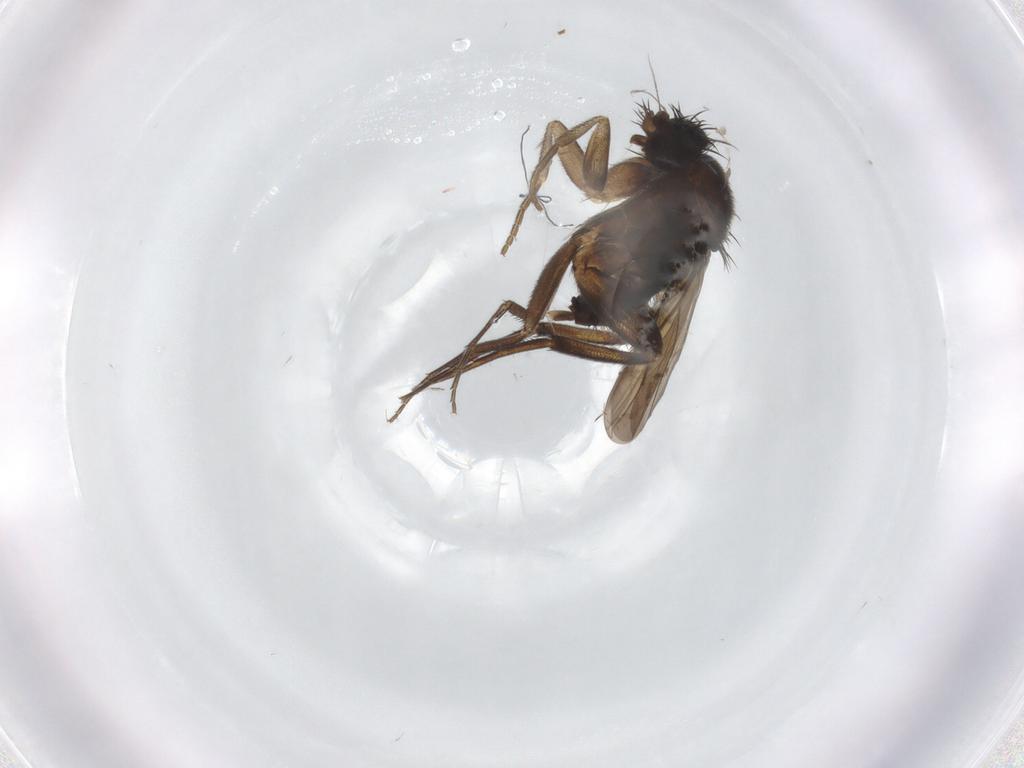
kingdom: Animalia
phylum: Arthropoda
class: Insecta
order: Diptera
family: Phoridae
